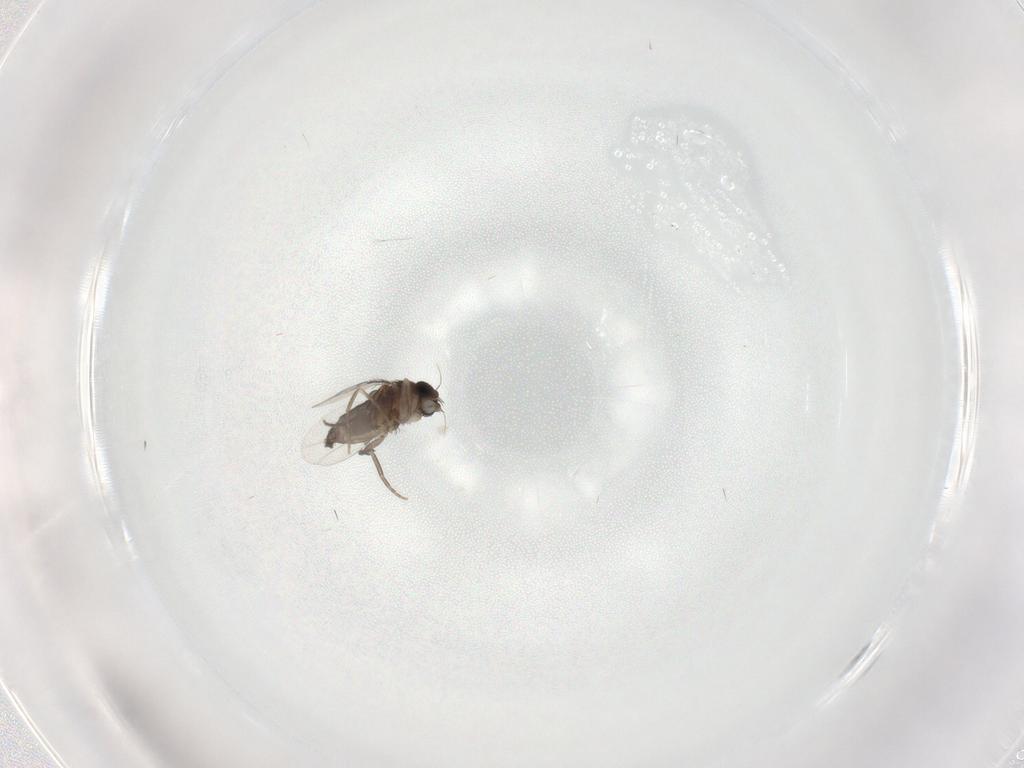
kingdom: Animalia
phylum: Arthropoda
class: Insecta
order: Diptera
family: Phoridae
